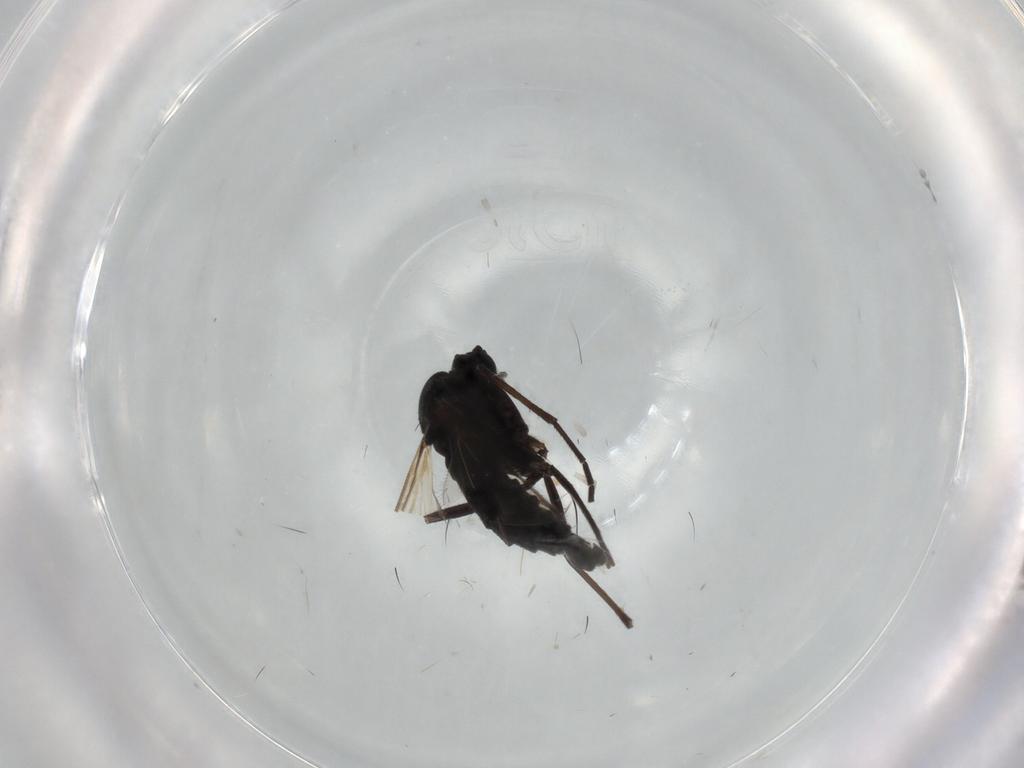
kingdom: Animalia
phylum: Arthropoda
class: Insecta
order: Diptera
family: Sciaridae
